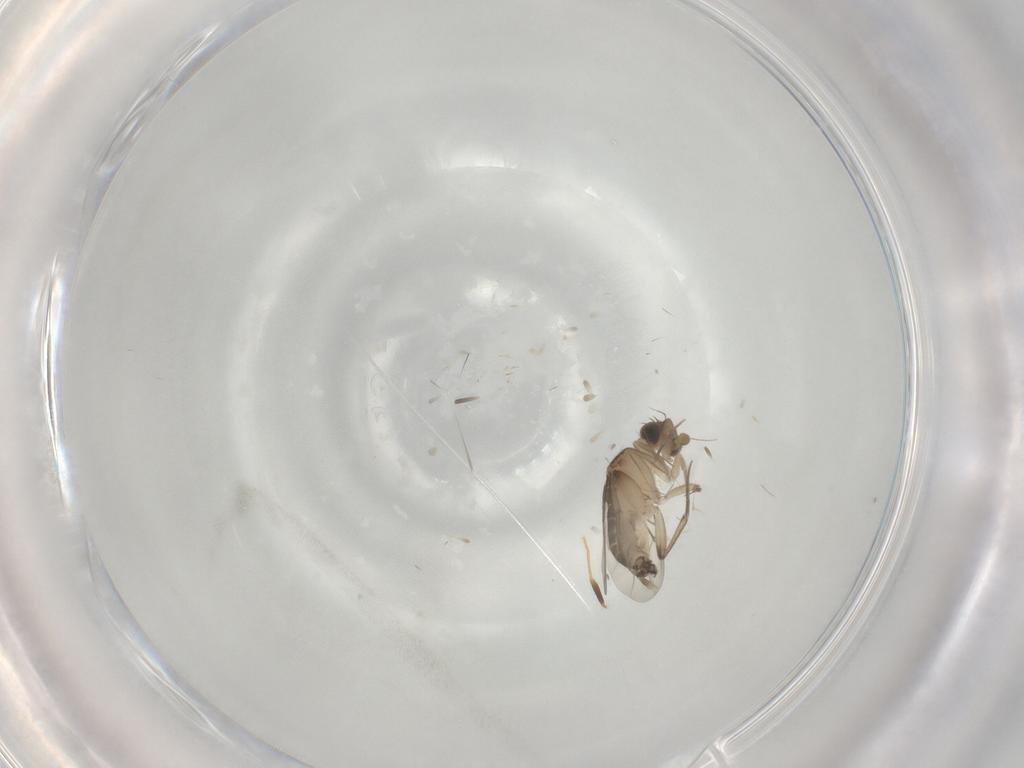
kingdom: Animalia
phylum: Arthropoda
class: Insecta
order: Diptera
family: Phoridae
